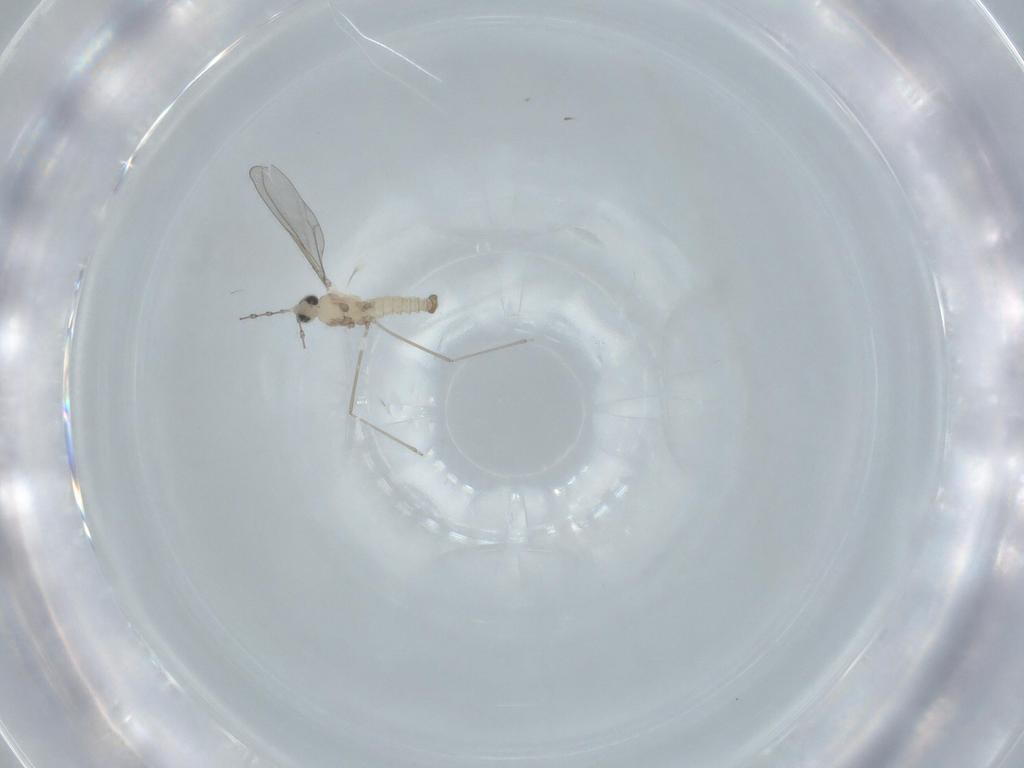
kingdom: Animalia
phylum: Arthropoda
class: Insecta
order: Diptera
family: Cecidomyiidae
